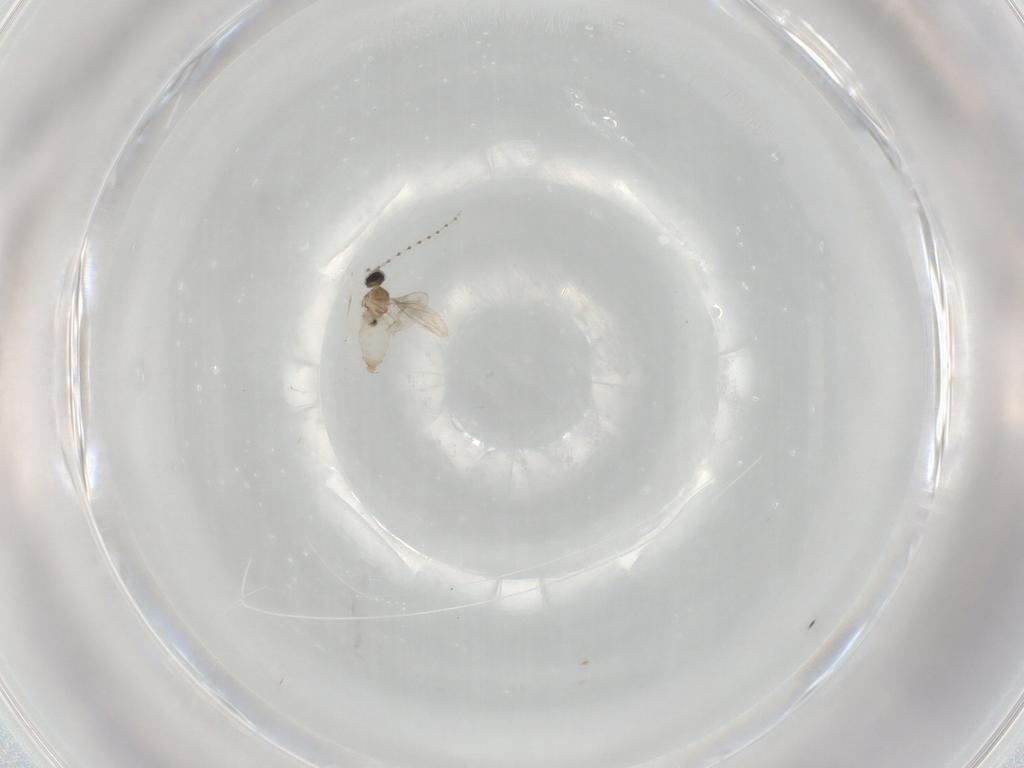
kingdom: Animalia
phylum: Arthropoda
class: Insecta
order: Diptera
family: Cecidomyiidae
